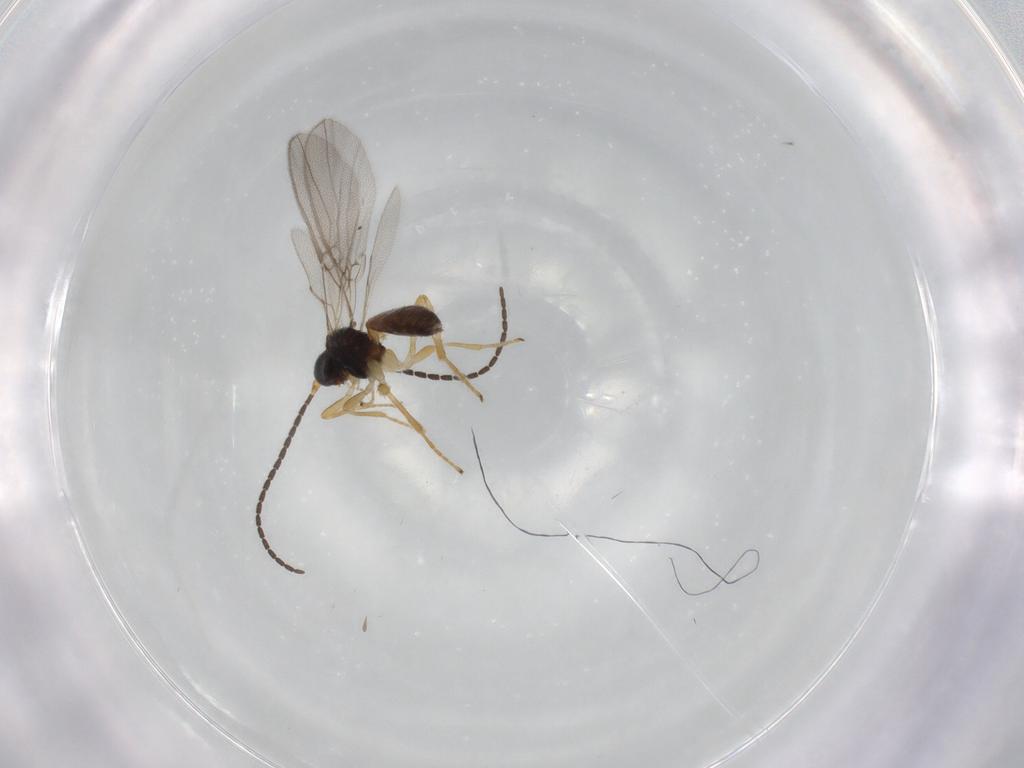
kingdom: Animalia
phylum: Arthropoda
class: Insecta
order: Hymenoptera
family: Braconidae
